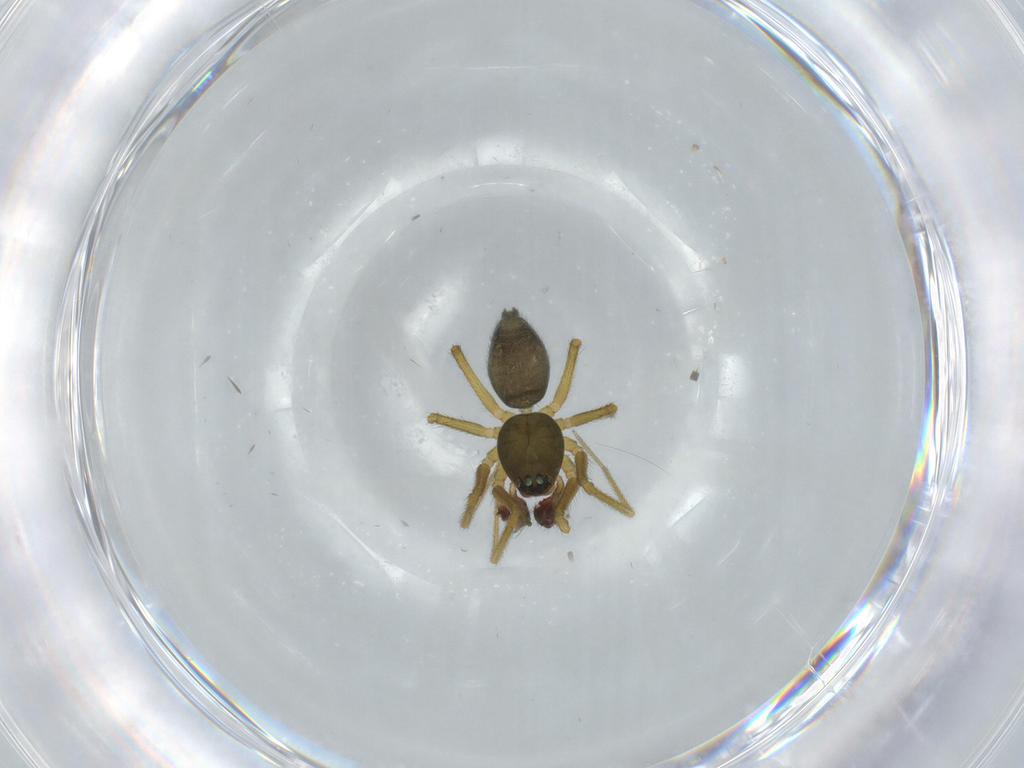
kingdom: Animalia
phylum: Arthropoda
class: Arachnida
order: Araneae
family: Linyphiidae
